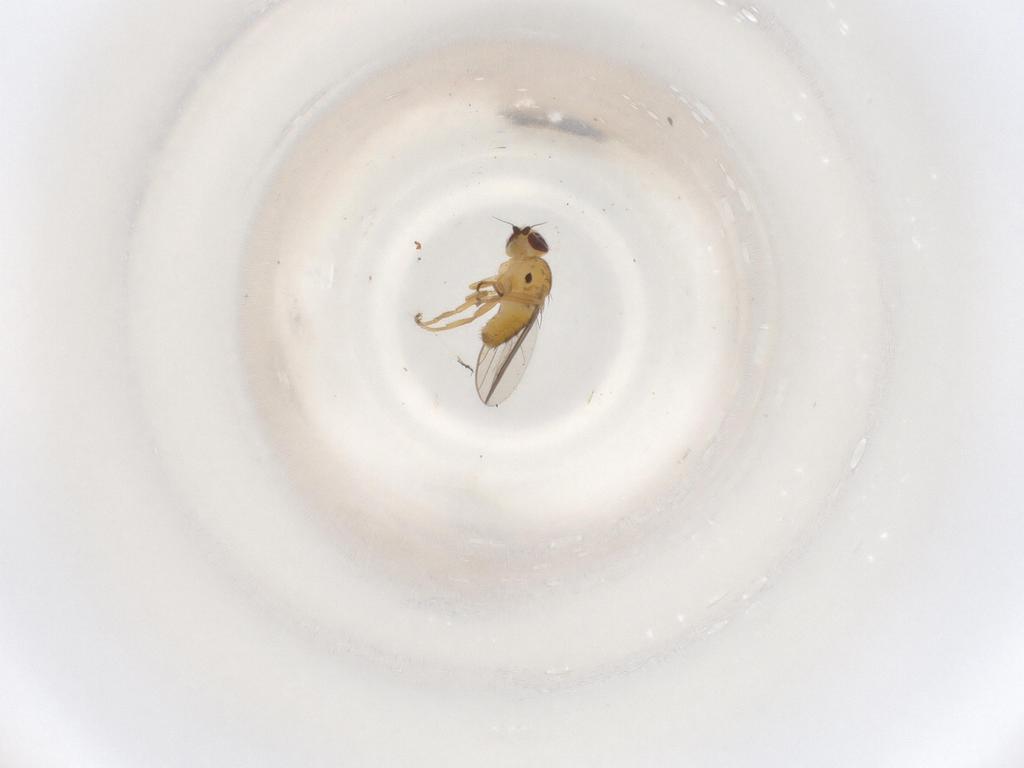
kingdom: Animalia
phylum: Arthropoda
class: Insecta
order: Diptera
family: Chloropidae
